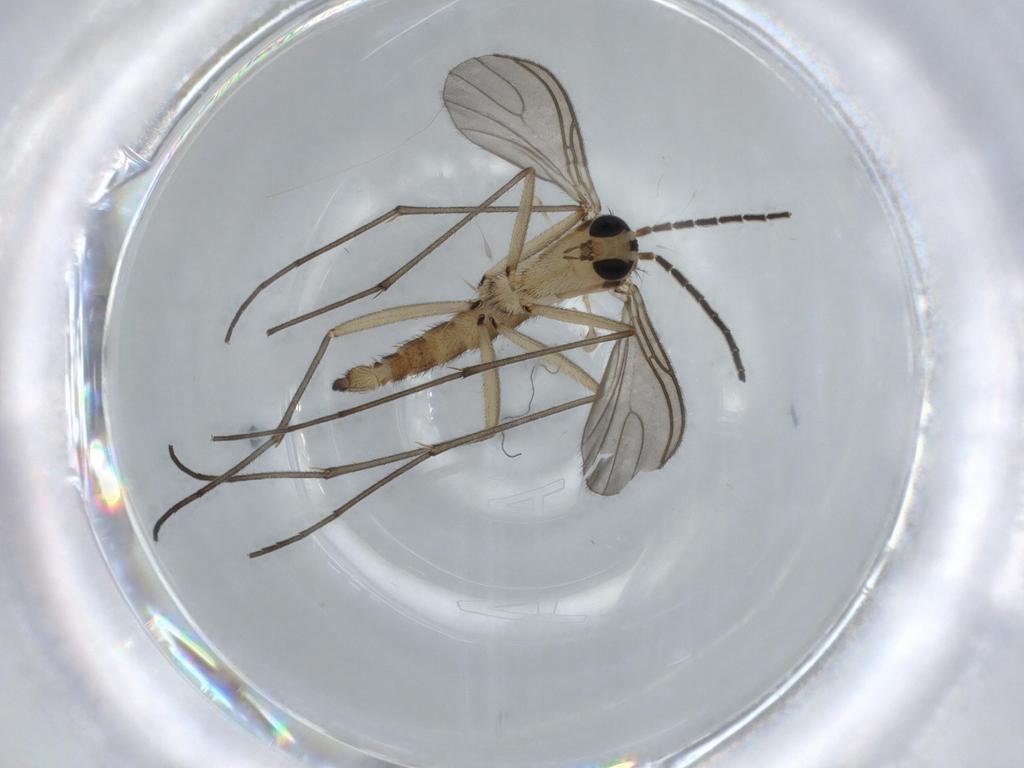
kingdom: Animalia
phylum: Arthropoda
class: Insecta
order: Diptera
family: Sciaridae
